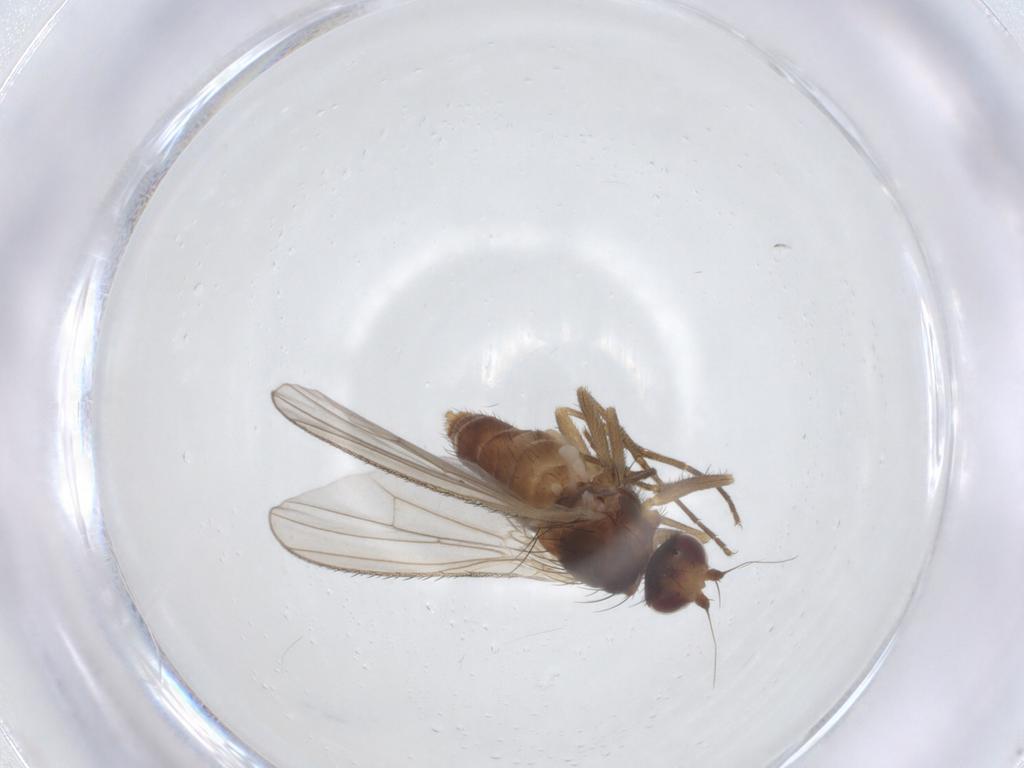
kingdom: Animalia
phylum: Arthropoda
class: Insecta
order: Diptera
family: Heleomyzidae
